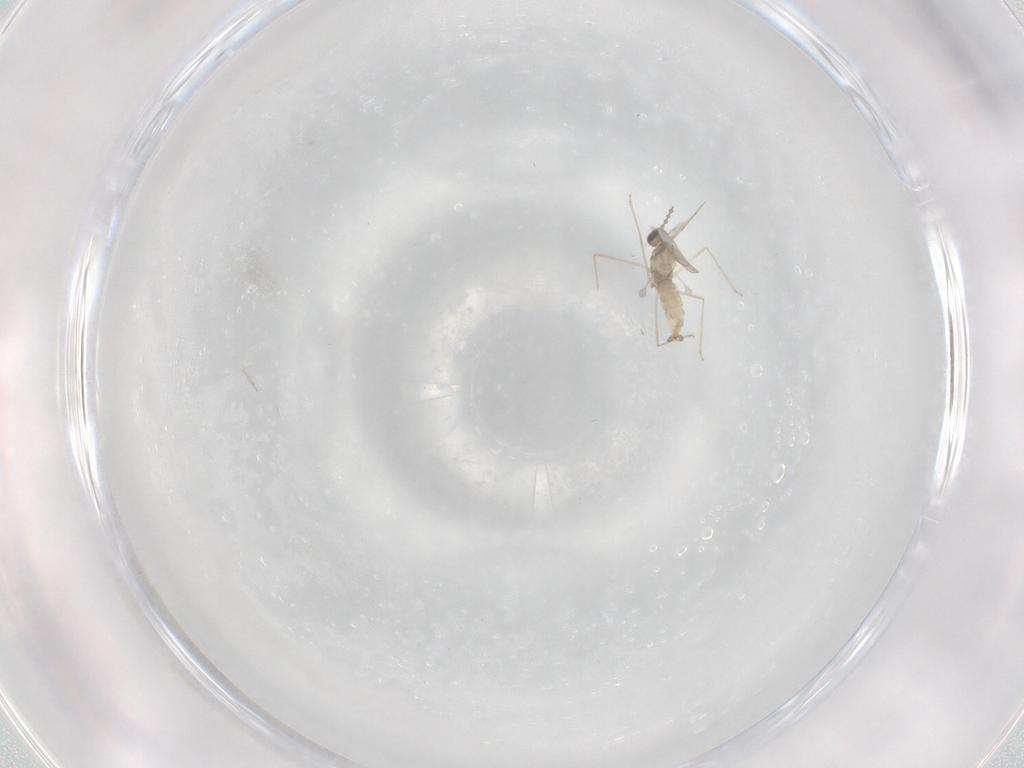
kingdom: Animalia
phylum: Arthropoda
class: Insecta
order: Diptera
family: Cecidomyiidae
